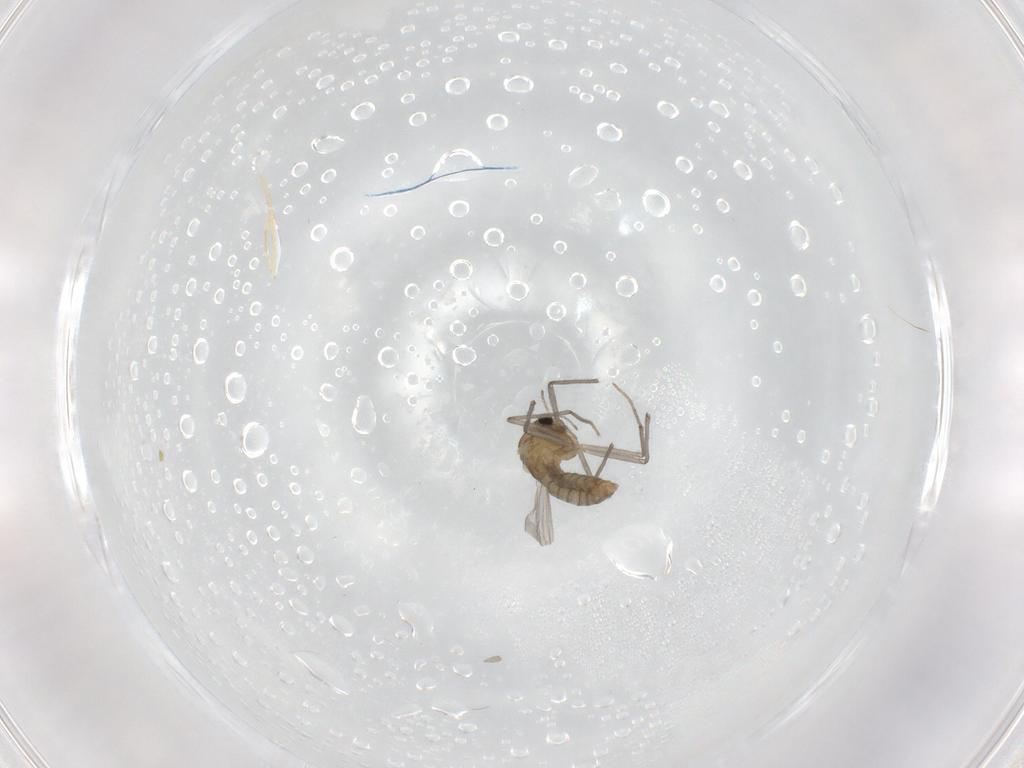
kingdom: Animalia
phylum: Arthropoda
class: Insecta
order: Diptera
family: Chironomidae
